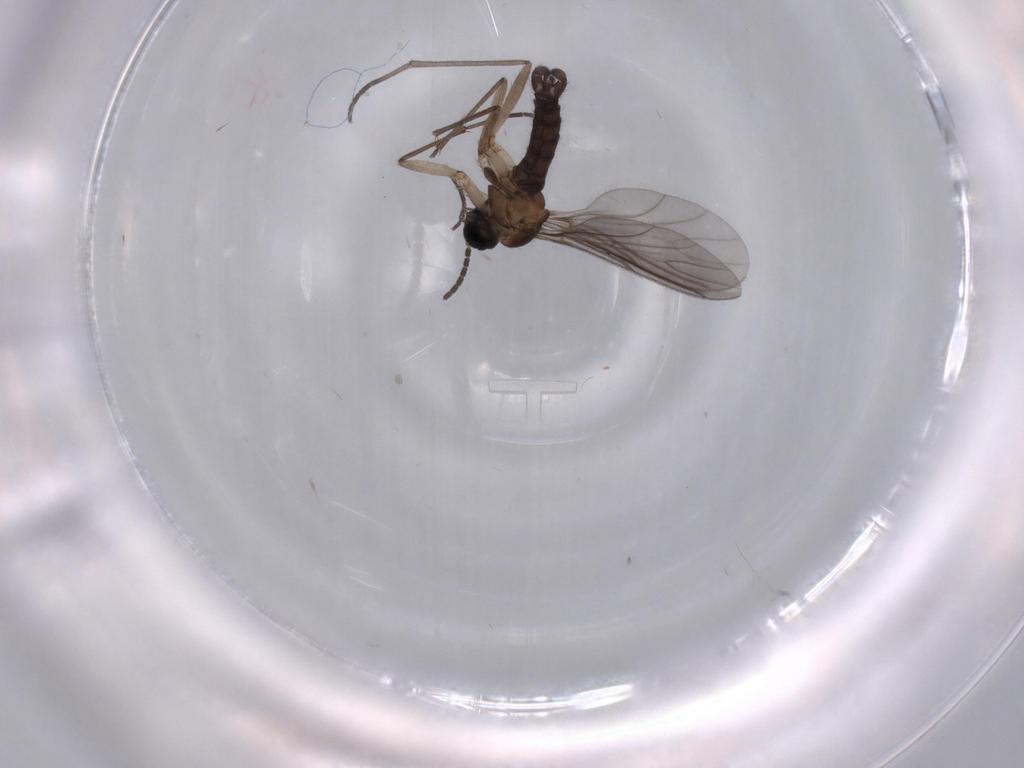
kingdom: Animalia
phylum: Arthropoda
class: Insecta
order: Diptera
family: Sciaridae
